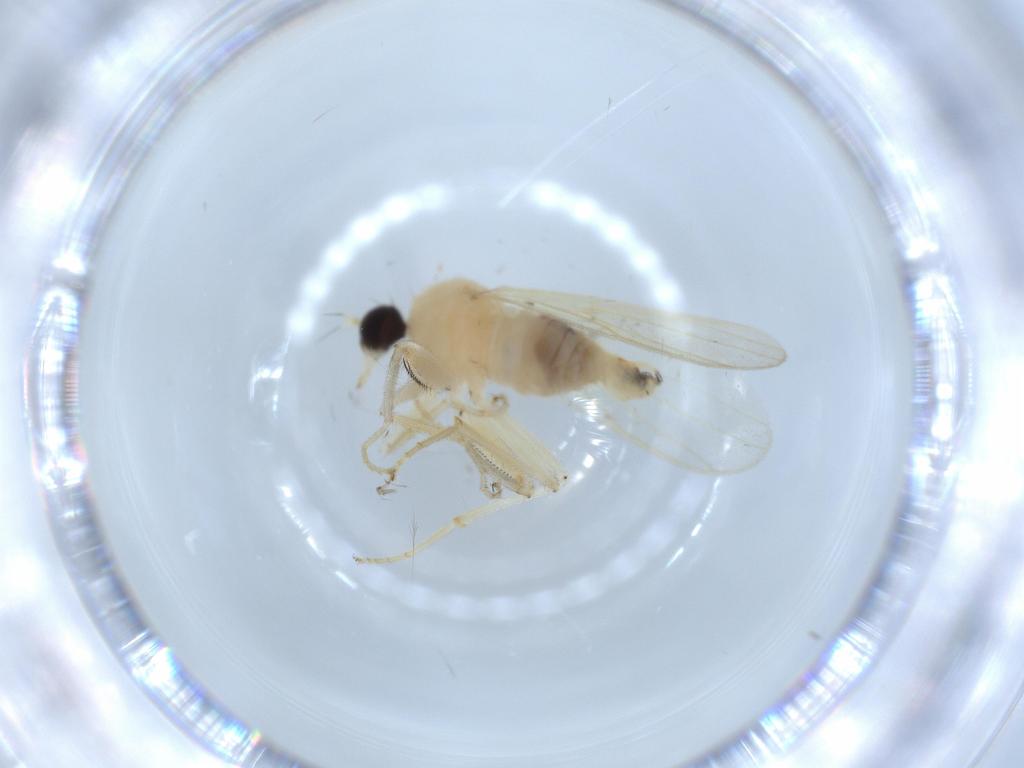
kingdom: Animalia
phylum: Arthropoda
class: Insecta
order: Diptera
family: Hybotidae
